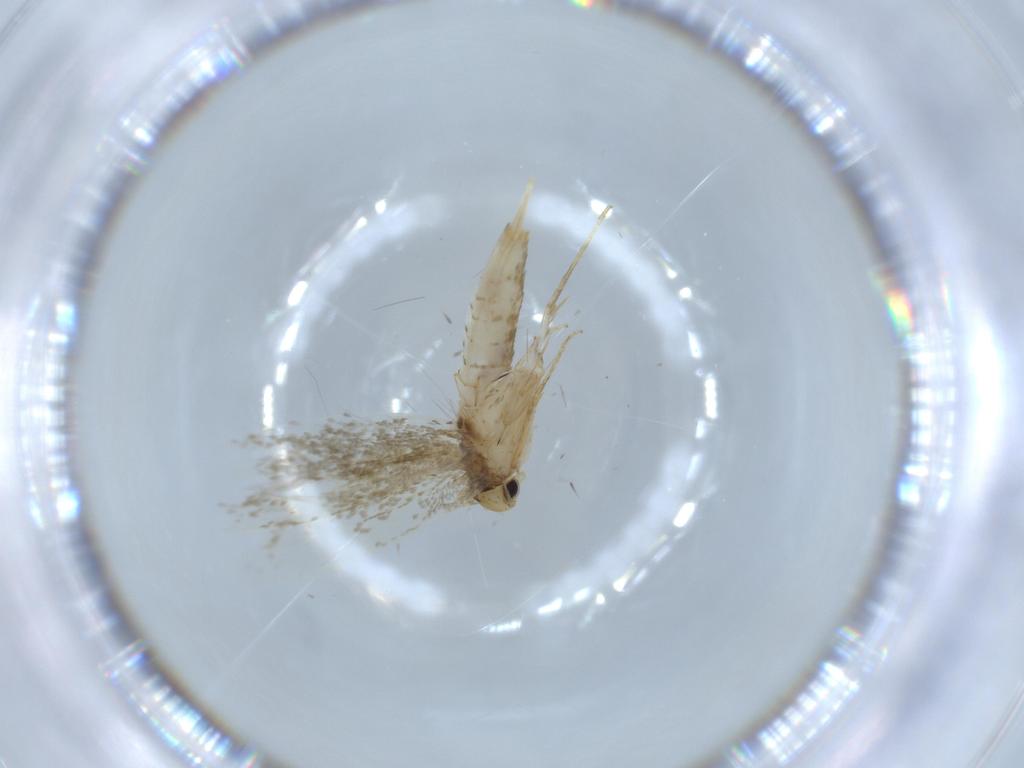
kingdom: Animalia
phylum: Arthropoda
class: Insecta
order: Lepidoptera
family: Tineidae
